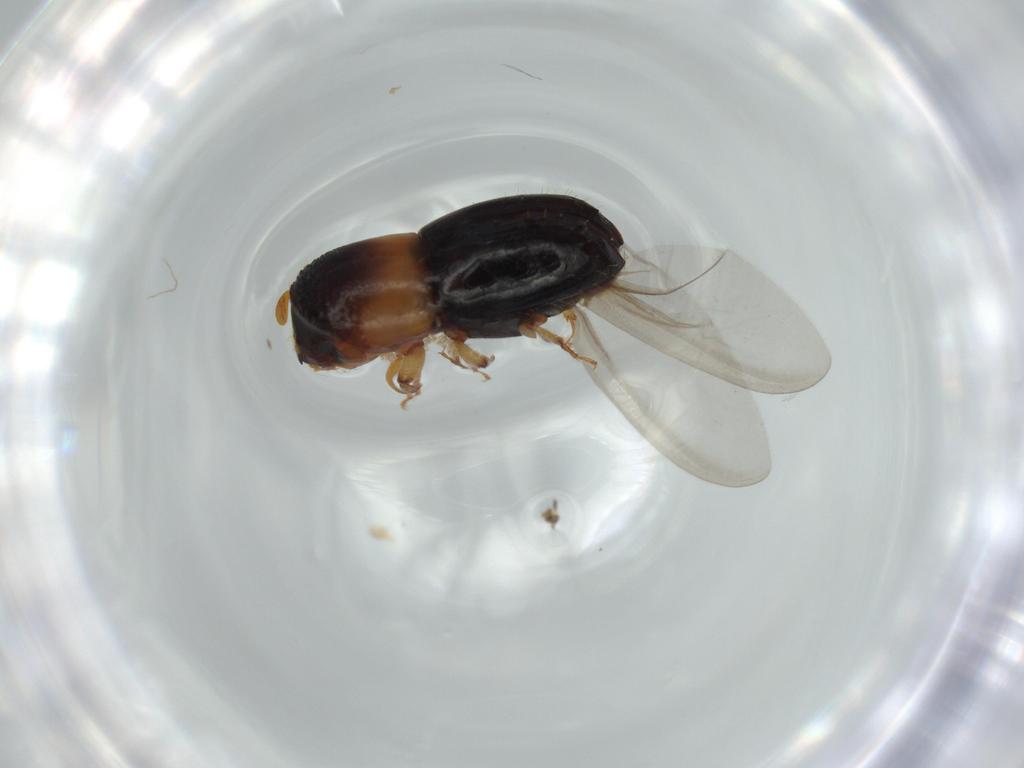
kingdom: Animalia
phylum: Arthropoda
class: Insecta
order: Coleoptera
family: Curculionidae
